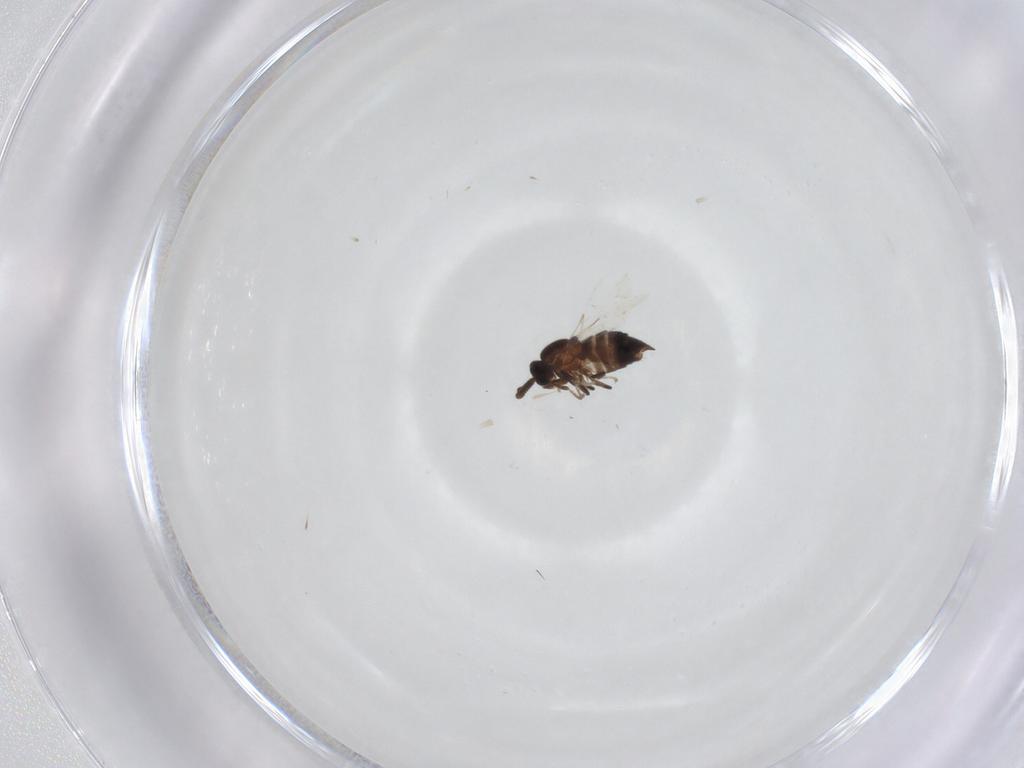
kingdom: Animalia
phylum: Arthropoda
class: Insecta
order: Diptera
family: Scatopsidae
